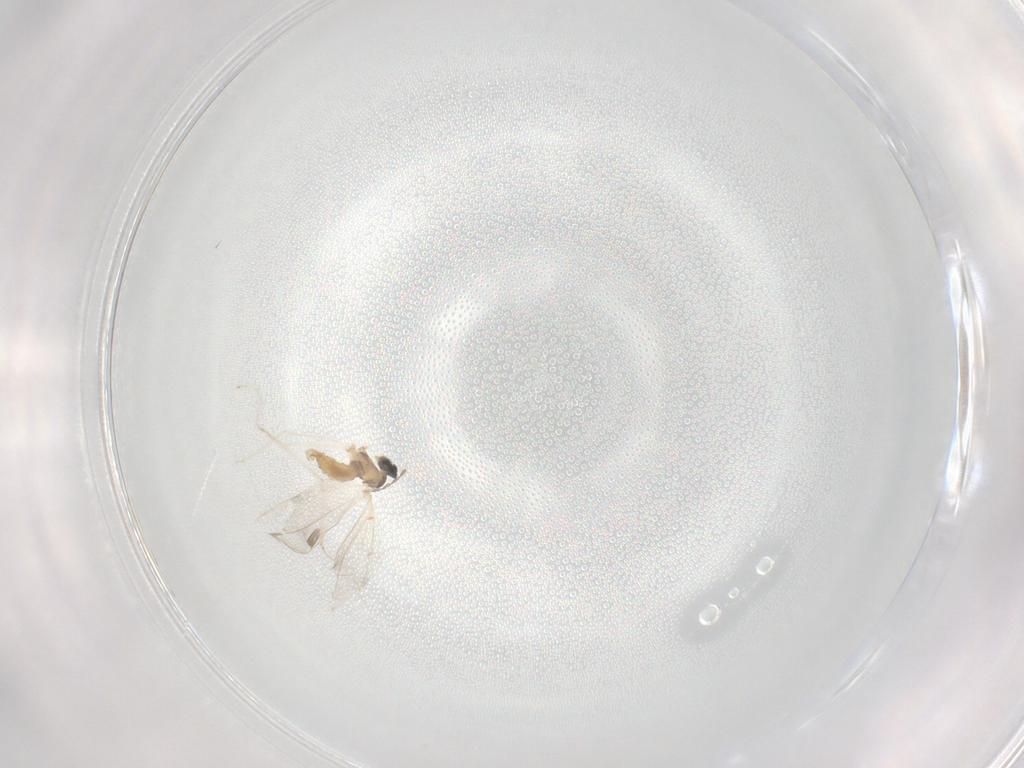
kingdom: Animalia
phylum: Arthropoda
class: Insecta
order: Diptera
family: Cecidomyiidae
